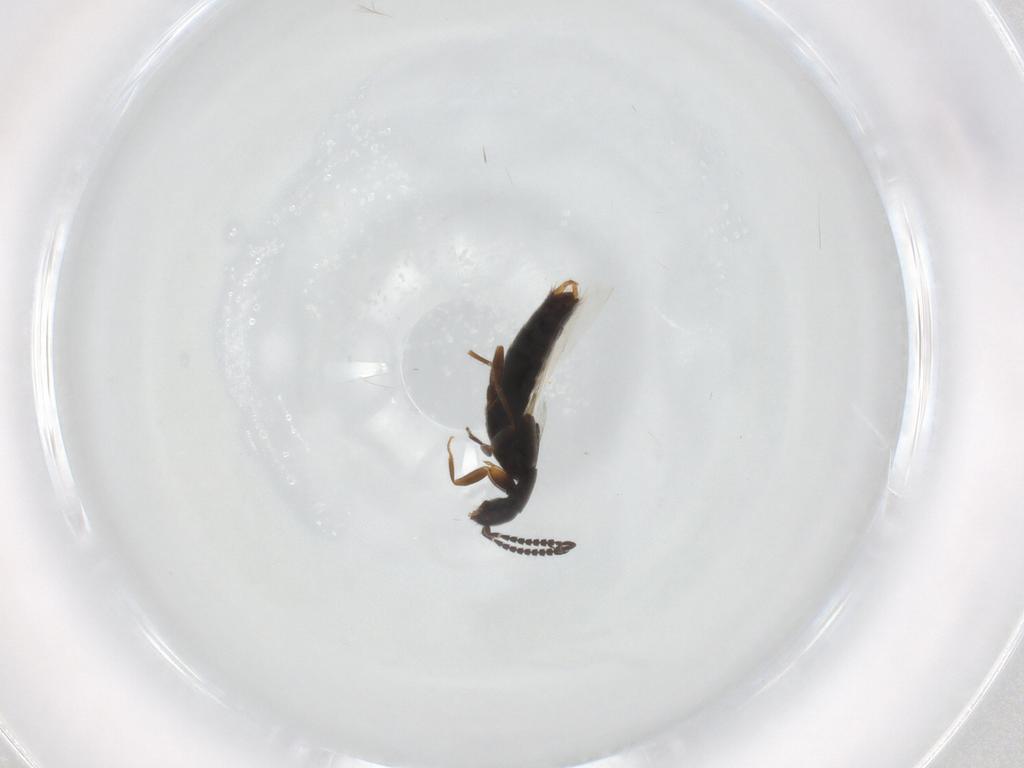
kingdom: Animalia
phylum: Arthropoda
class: Insecta
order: Coleoptera
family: Staphylinidae
